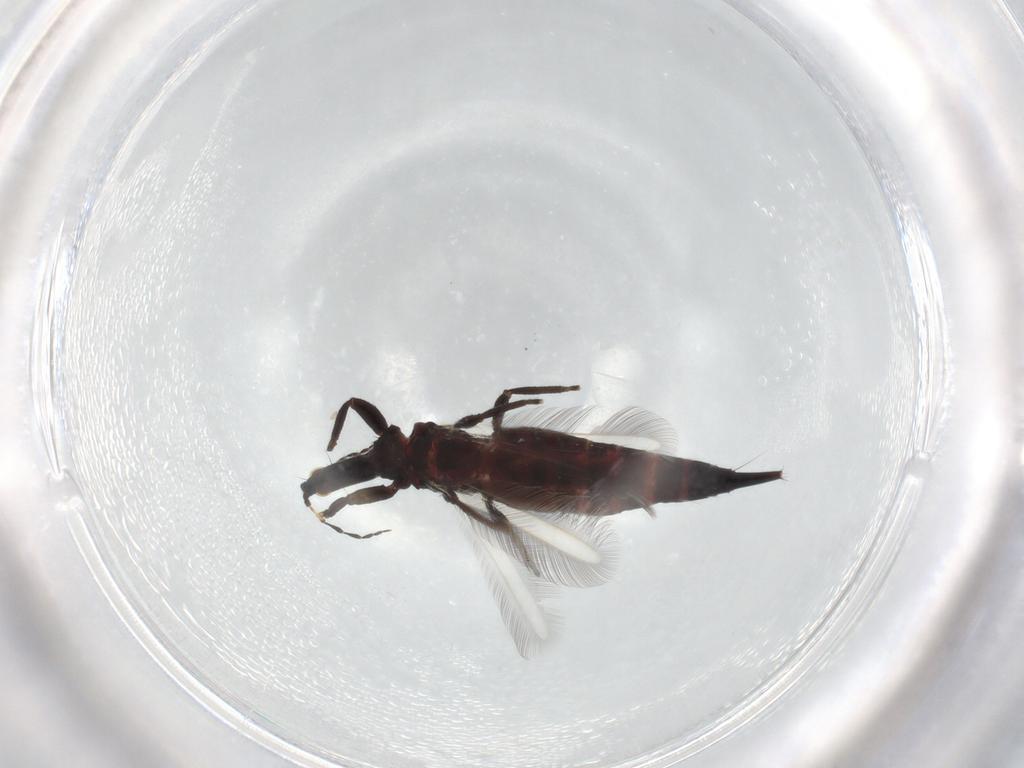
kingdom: Animalia
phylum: Arthropoda
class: Insecta
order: Thysanoptera
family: Phlaeothripidae
